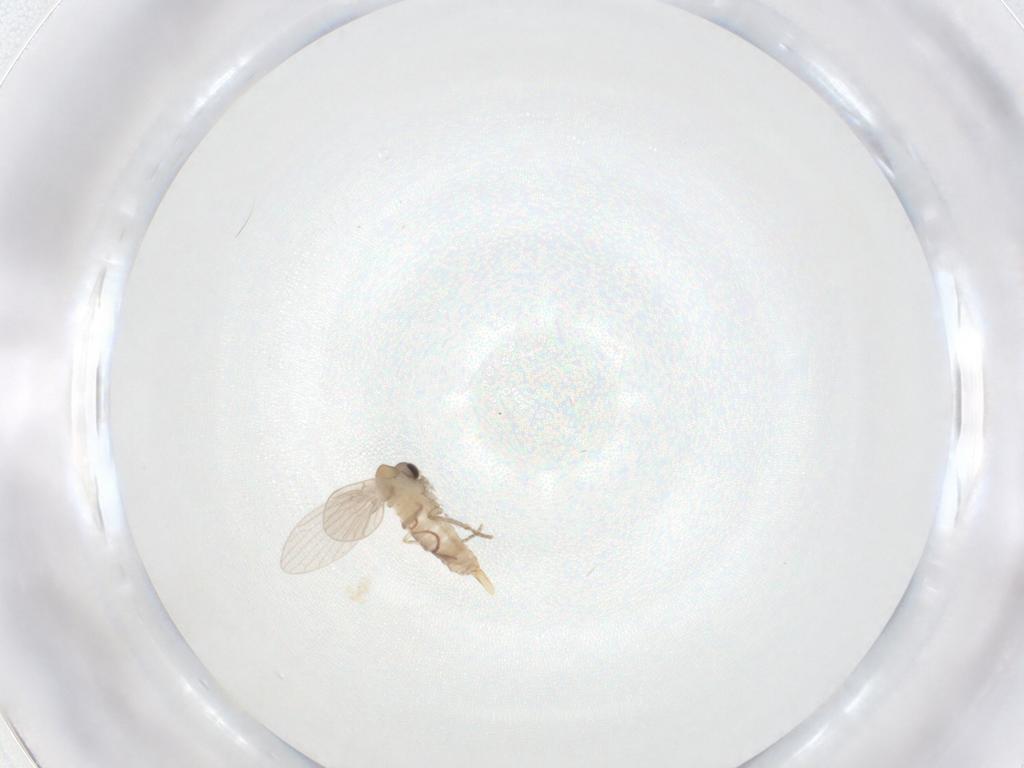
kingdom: Animalia
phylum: Arthropoda
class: Insecta
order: Diptera
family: Psychodidae
